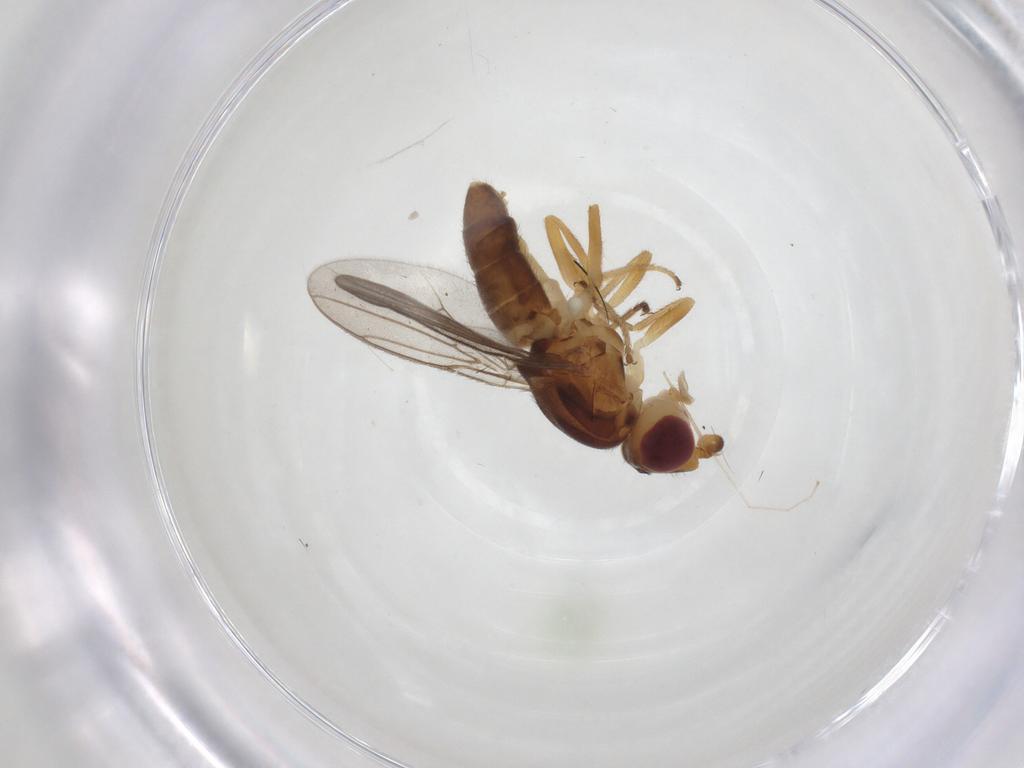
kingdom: Animalia
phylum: Arthropoda
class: Insecta
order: Diptera
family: Chloropidae
